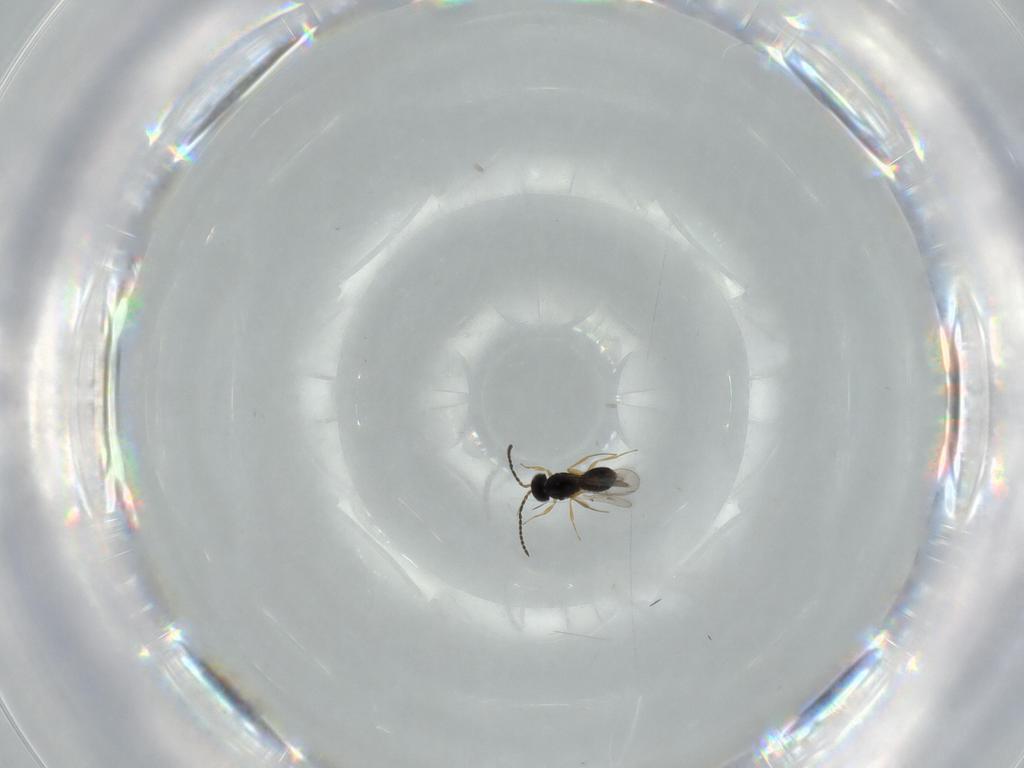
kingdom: Animalia
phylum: Arthropoda
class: Insecta
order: Hymenoptera
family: Scelionidae
